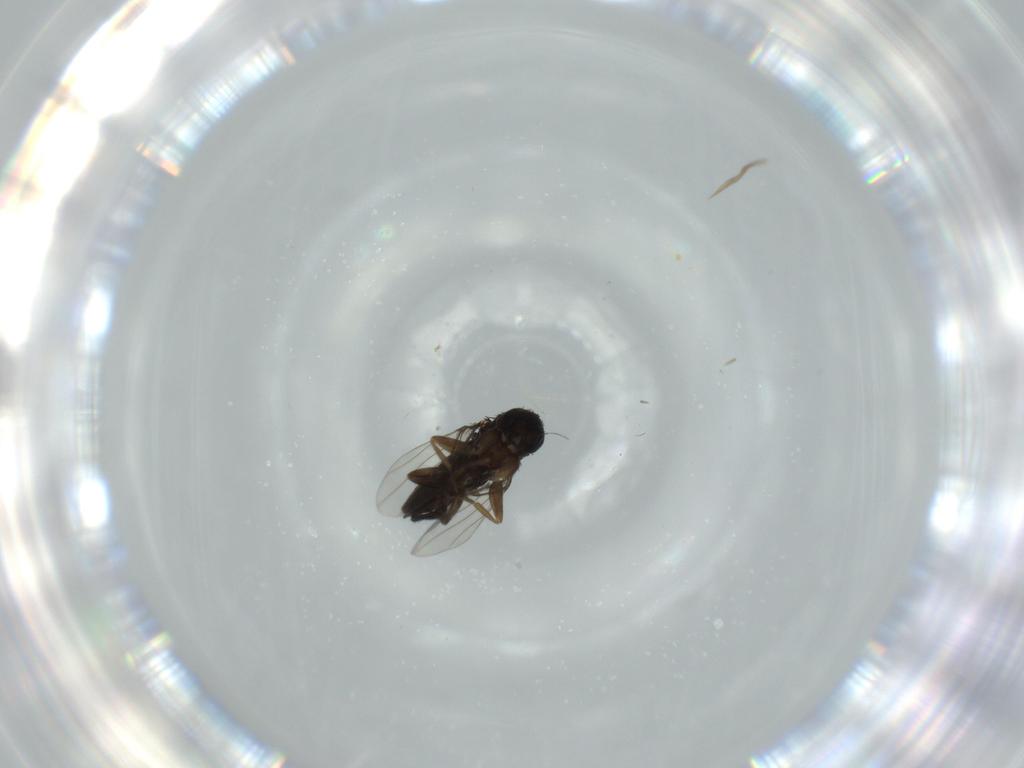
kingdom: Animalia
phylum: Arthropoda
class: Insecta
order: Diptera
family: Phoridae
